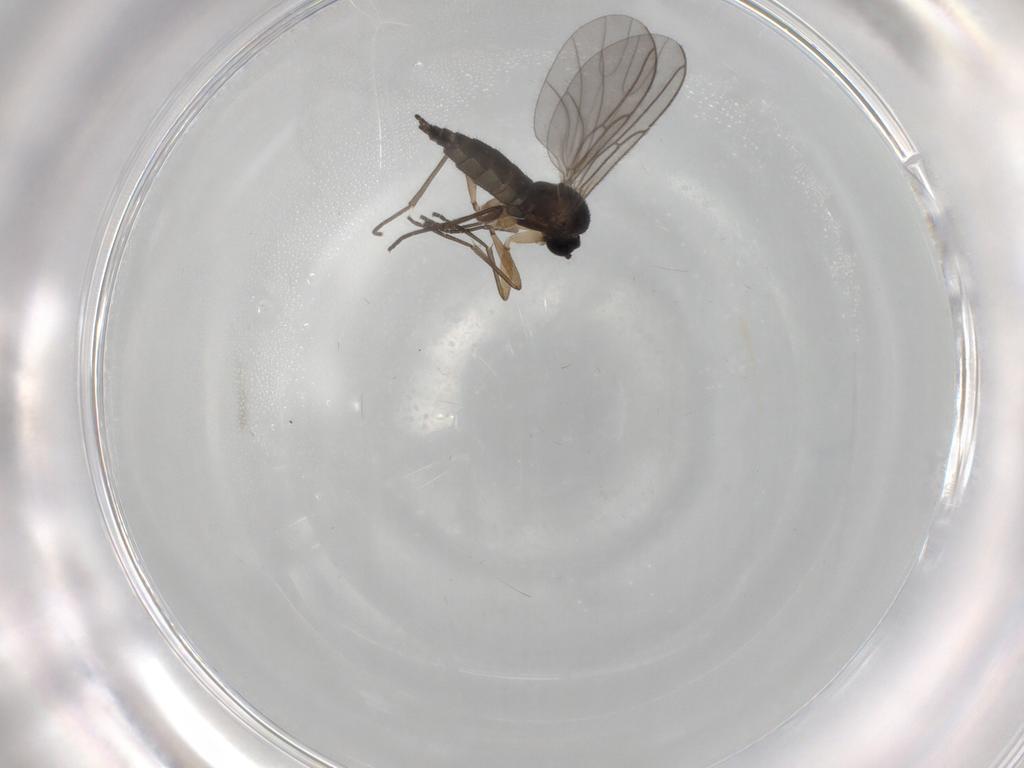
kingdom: Animalia
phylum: Arthropoda
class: Insecta
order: Diptera
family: Sciaridae
